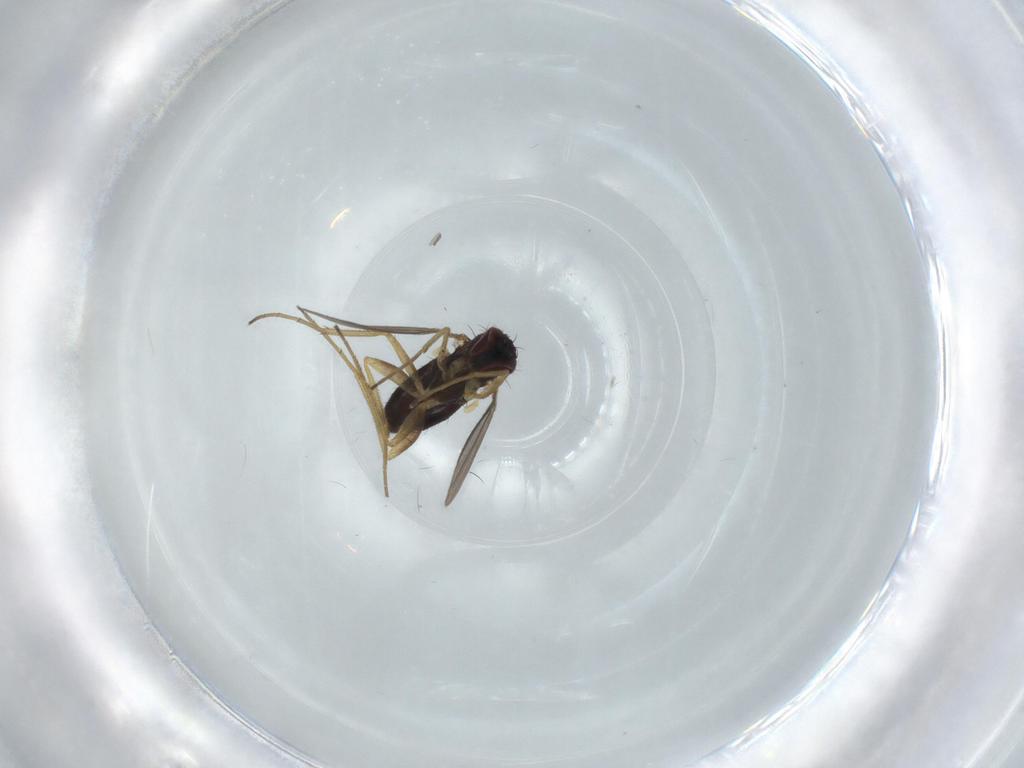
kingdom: Animalia
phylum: Arthropoda
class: Insecta
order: Diptera
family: Dolichopodidae
